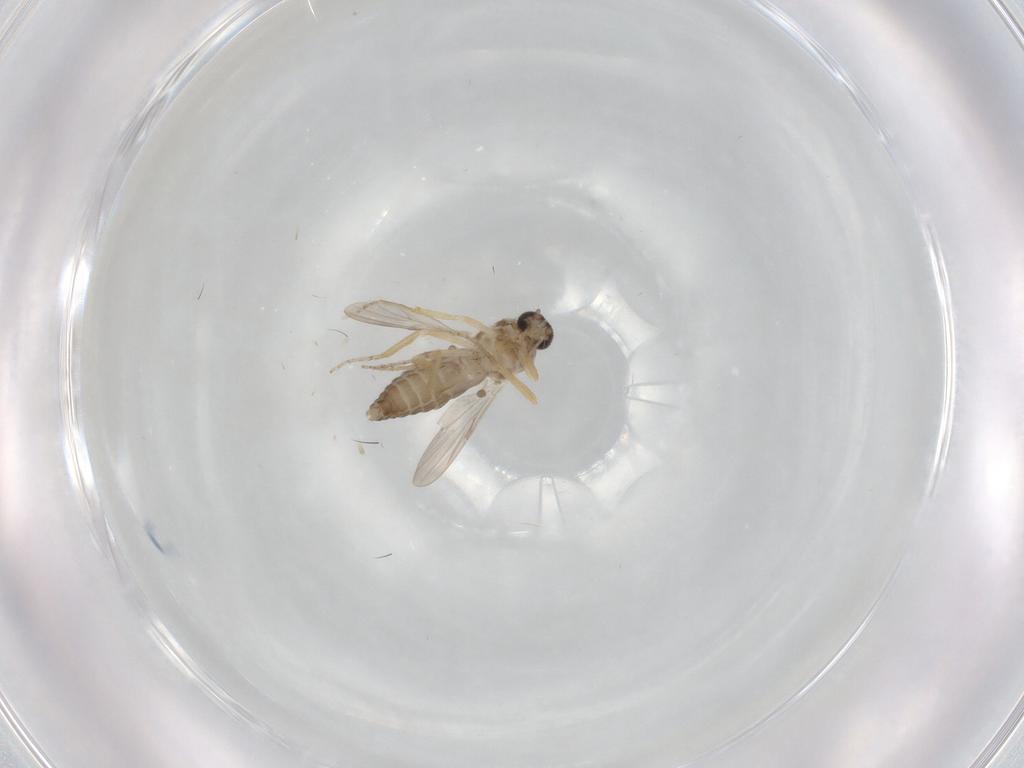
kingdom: Animalia
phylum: Arthropoda
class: Insecta
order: Diptera
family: Ceratopogonidae
